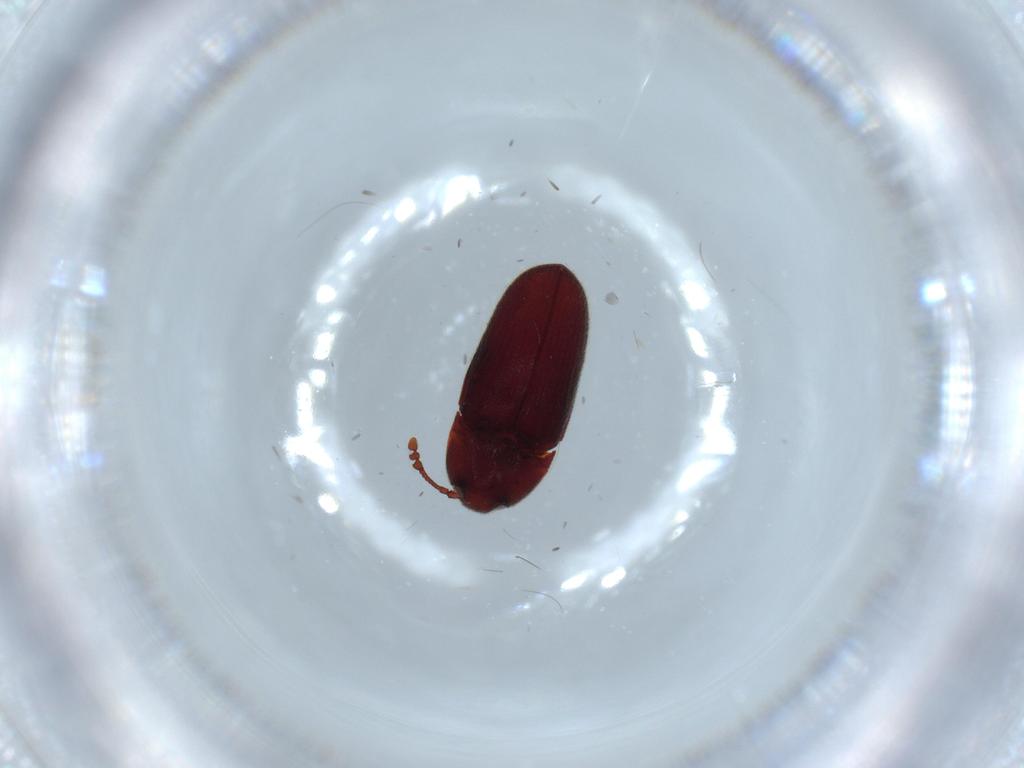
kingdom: Animalia
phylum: Arthropoda
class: Insecta
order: Coleoptera
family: Throscidae
